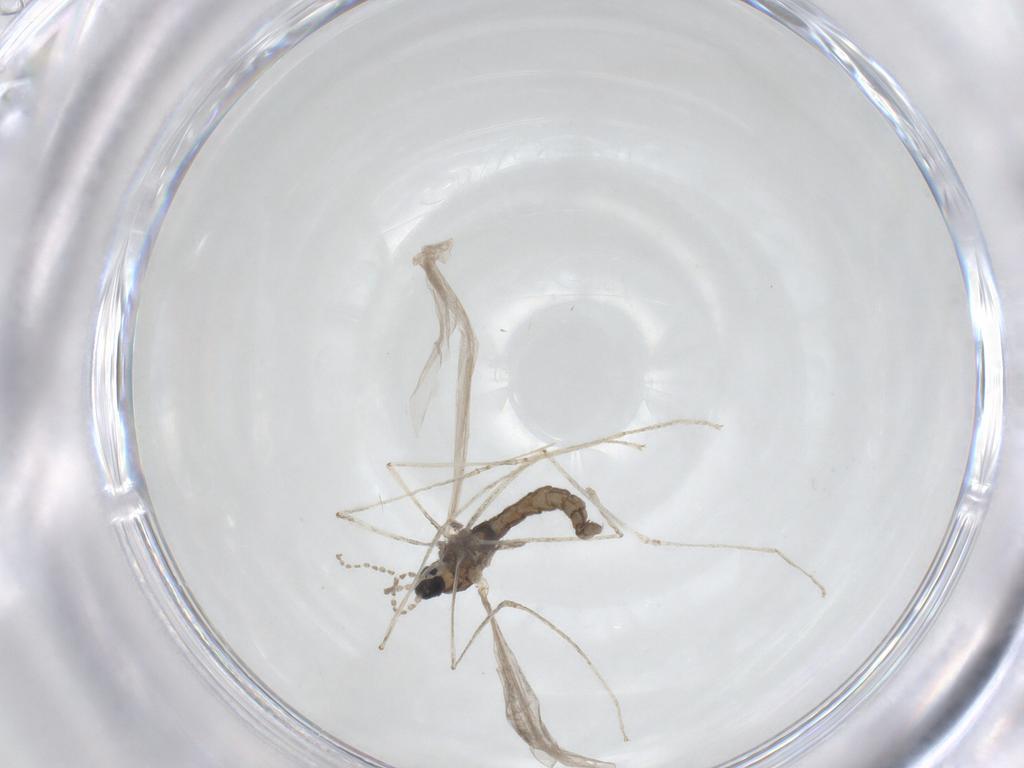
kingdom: Animalia
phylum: Arthropoda
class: Insecta
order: Diptera
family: Cecidomyiidae
